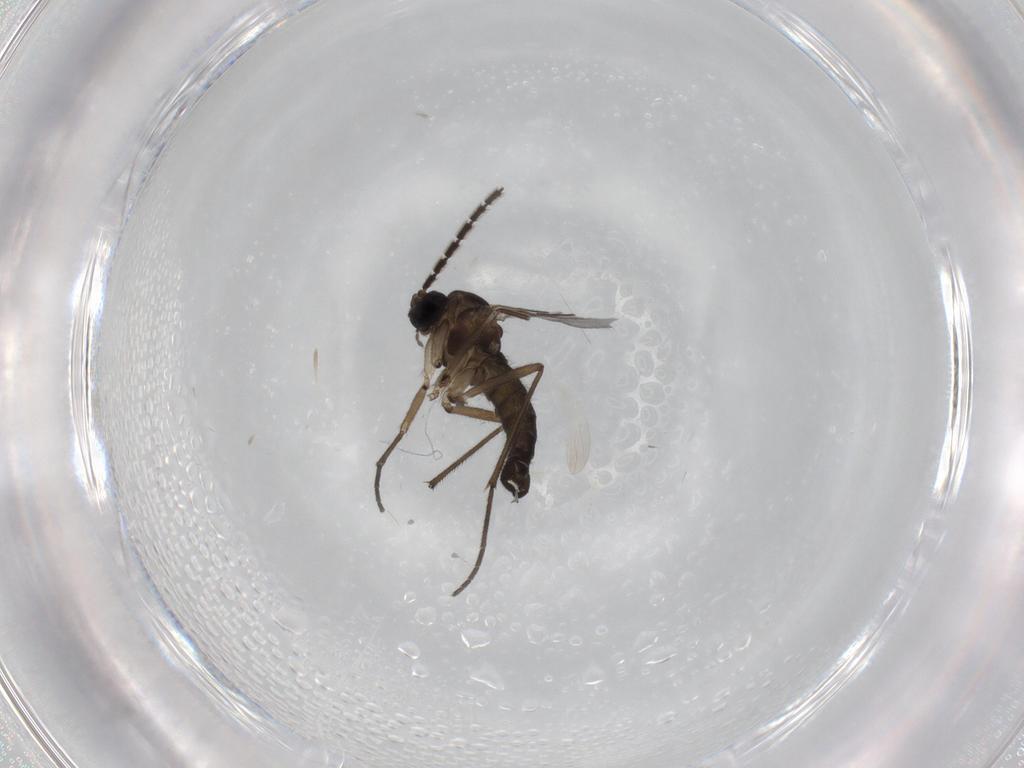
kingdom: Animalia
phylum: Arthropoda
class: Insecta
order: Diptera
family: Sciaridae
